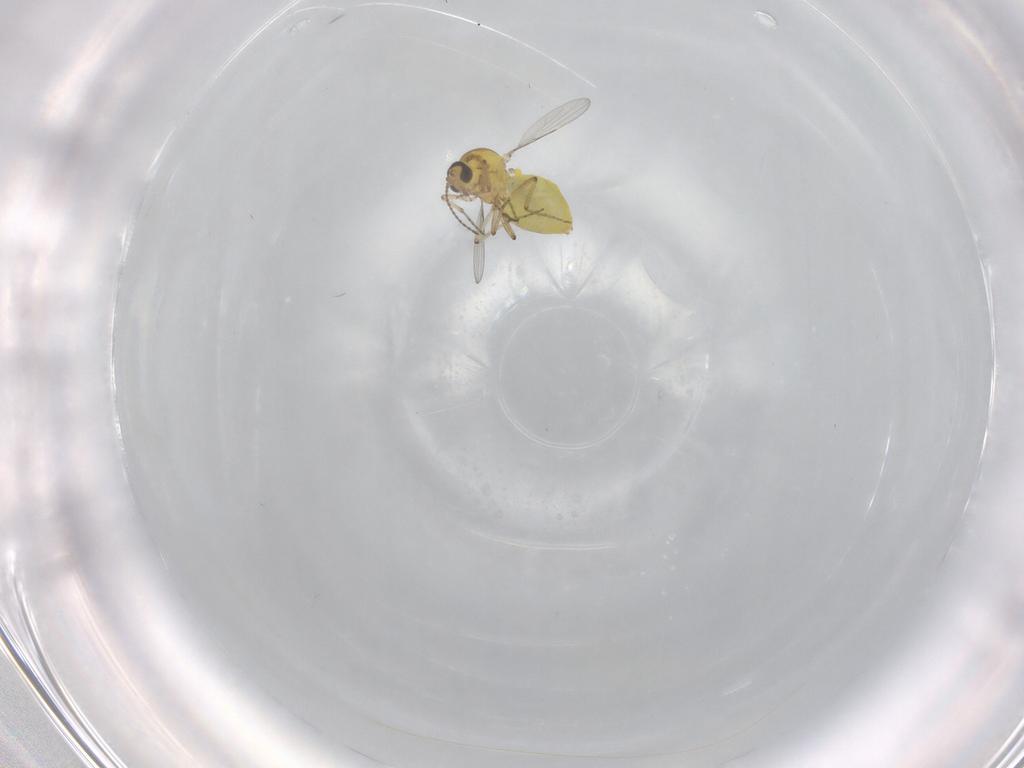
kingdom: Animalia
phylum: Arthropoda
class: Insecta
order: Diptera
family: Ceratopogonidae
